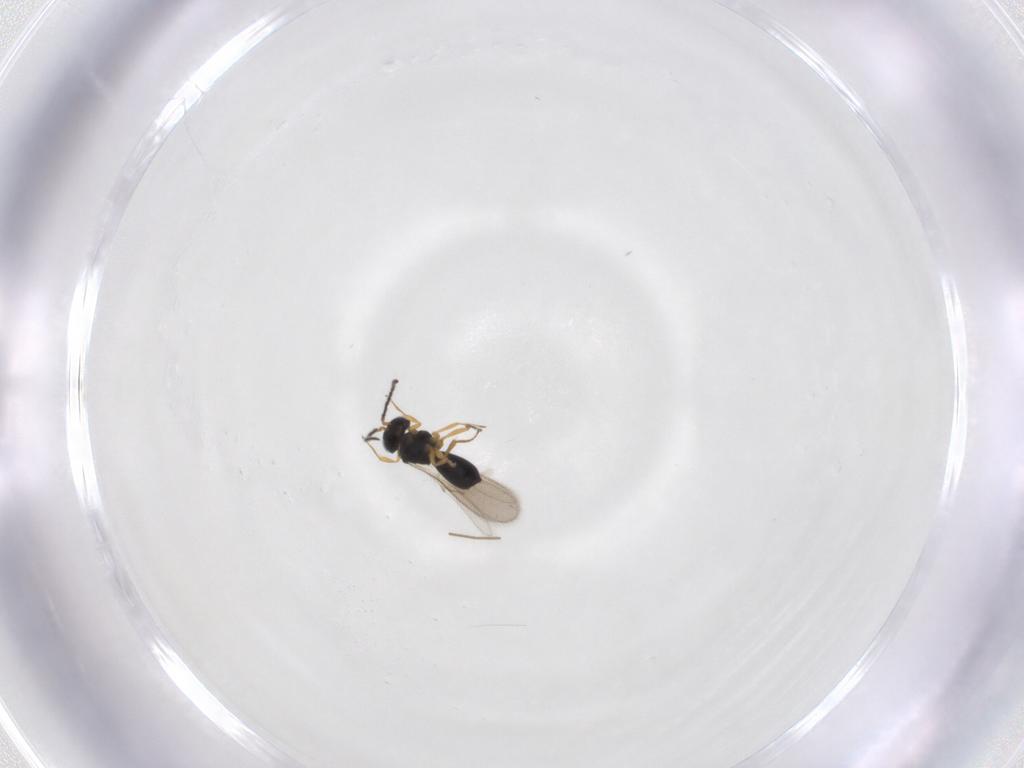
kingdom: Animalia
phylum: Arthropoda
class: Insecta
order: Hymenoptera
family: Scelionidae
